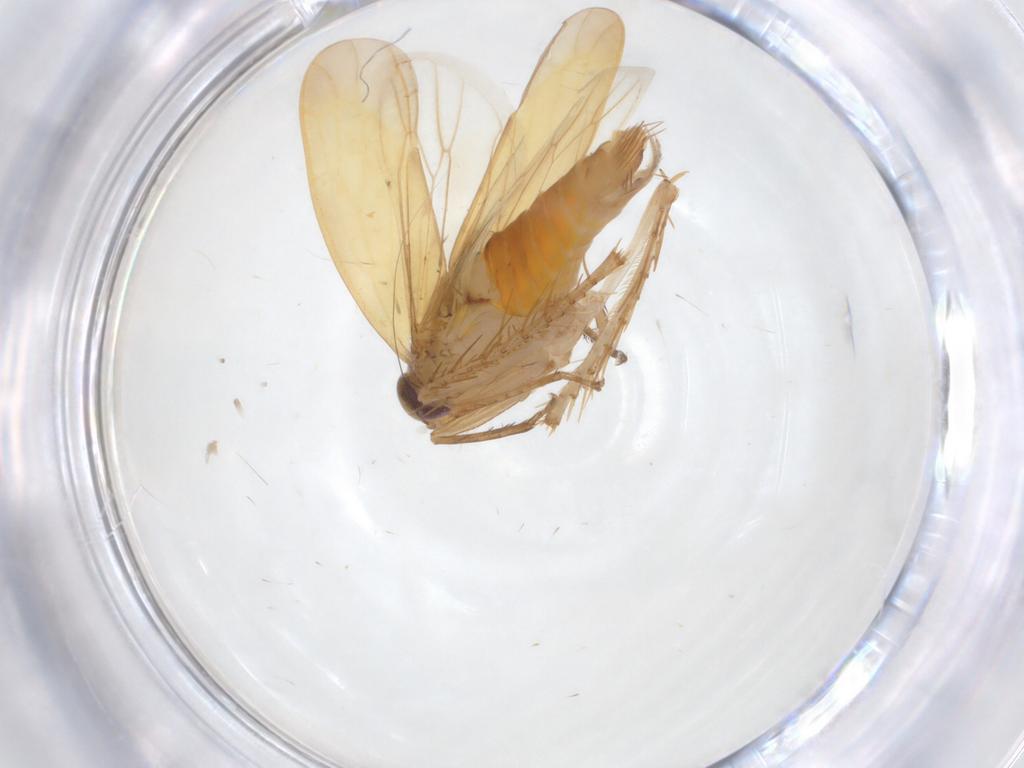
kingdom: Animalia
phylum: Arthropoda
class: Insecta
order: Hemiptera
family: Cicadellidae
